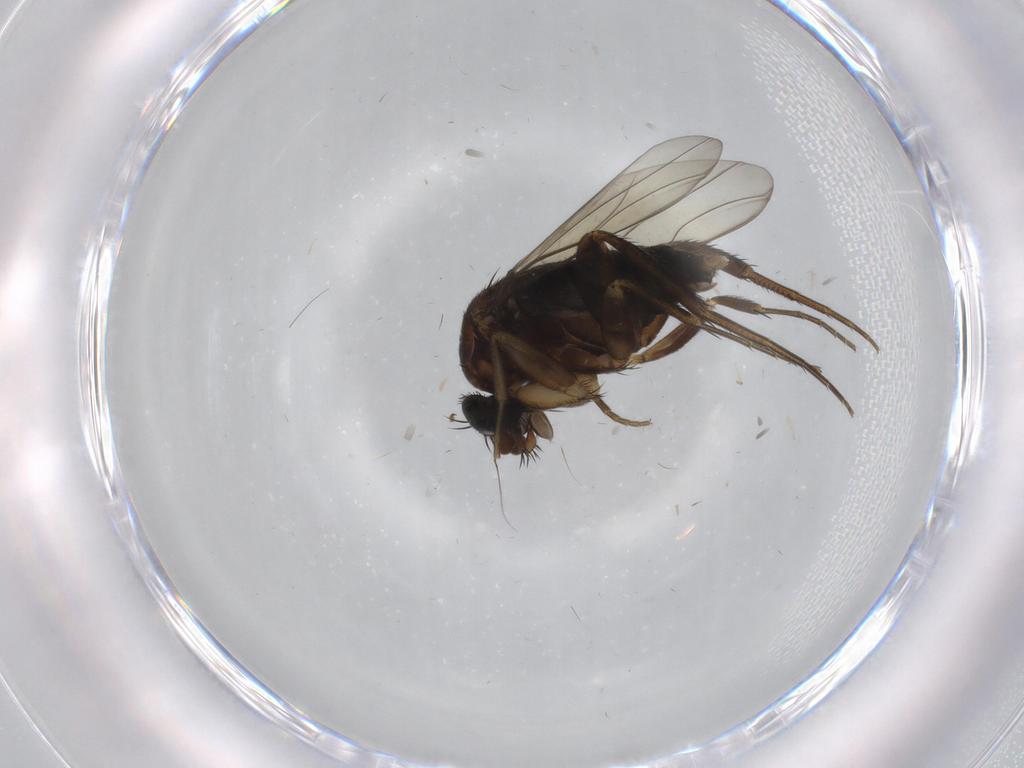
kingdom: Animalia
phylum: Arthropoda
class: Insecta
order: Diptera
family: Phoridae
